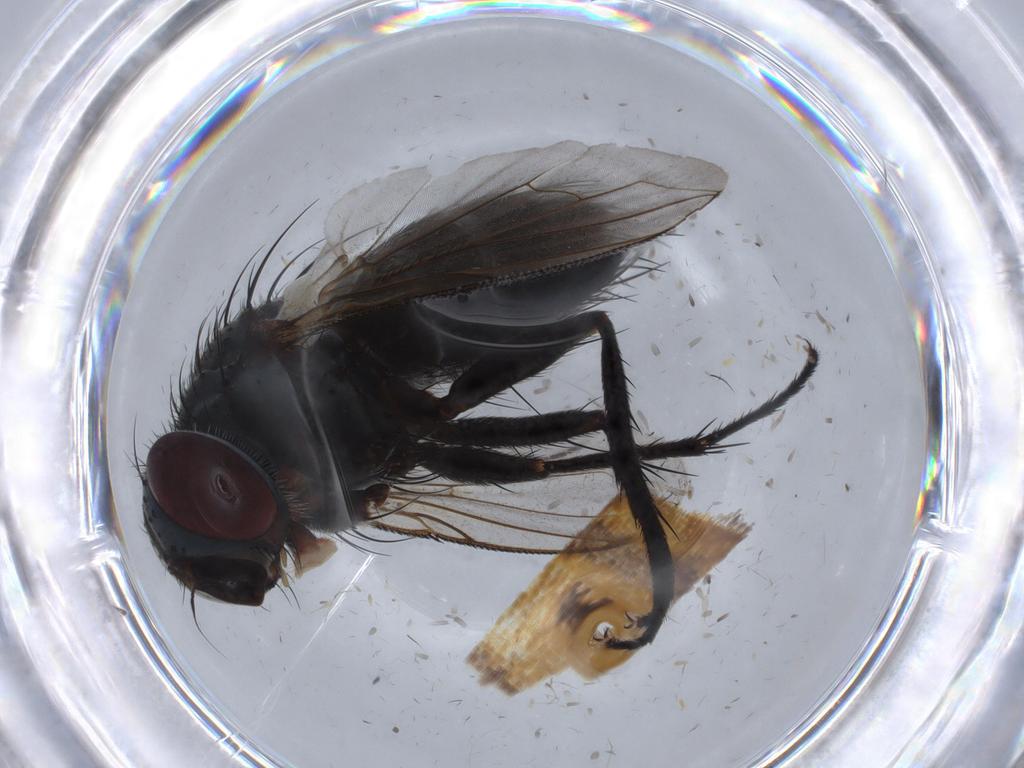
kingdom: Animalia
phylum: Arthropoda
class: Insecta
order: Diptera
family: Tachinidae
